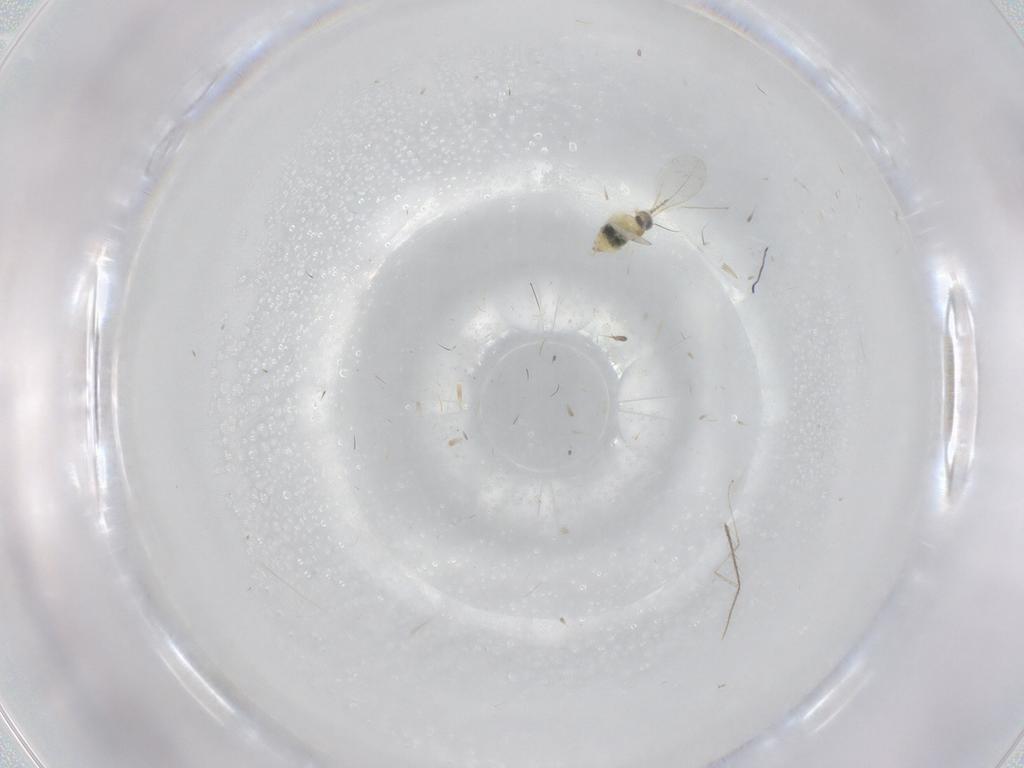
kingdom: Animalia
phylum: Arthropoda
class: Insecta
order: Diptera
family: Cecidomyiidae
